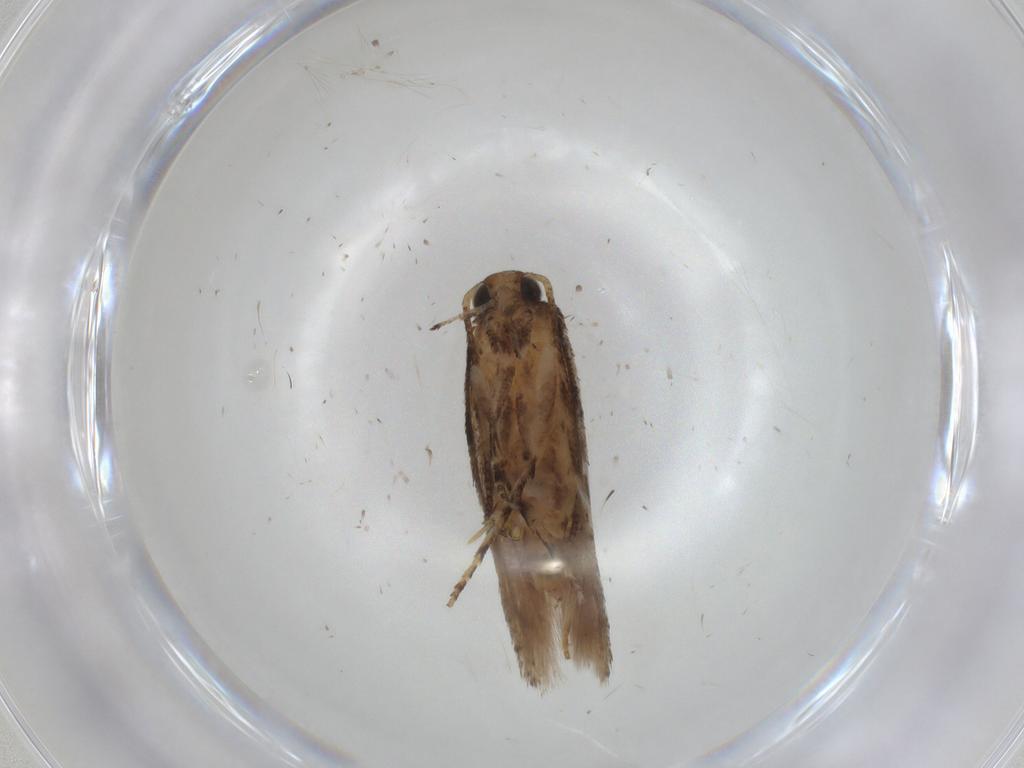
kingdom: Animalia
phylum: Arthropoda
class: Insecta
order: Lepidoptera
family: Gelechiidae
